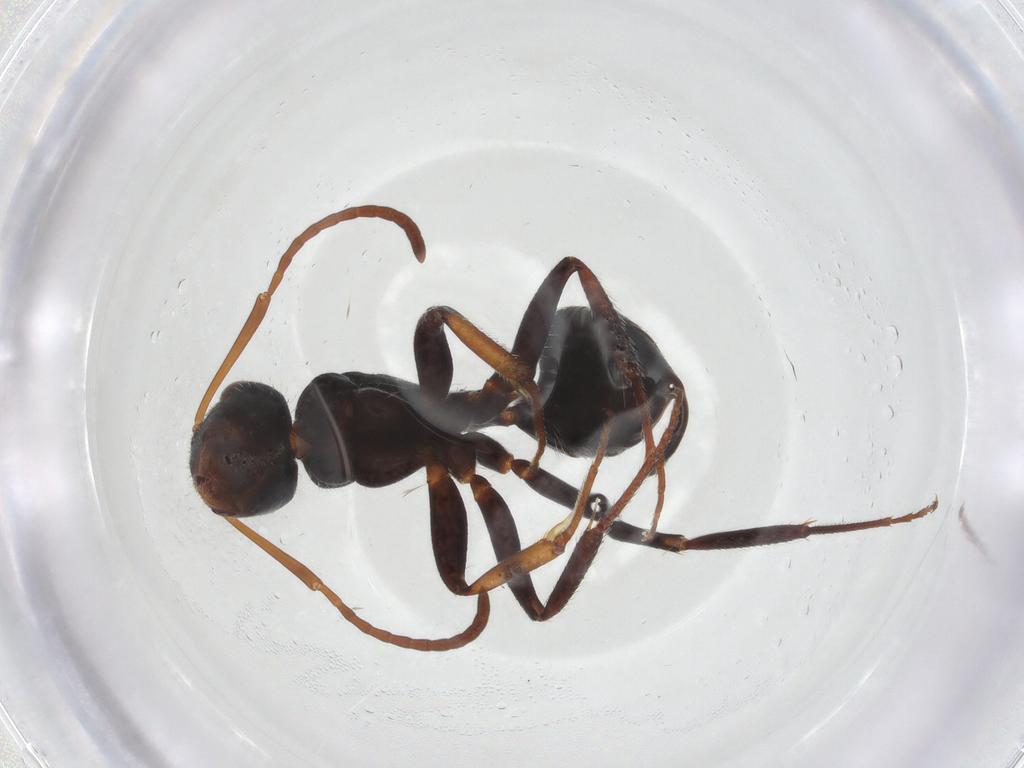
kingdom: Animalia
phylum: Arthropoda
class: Insecta
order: Hymenoptera
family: Formicidae
